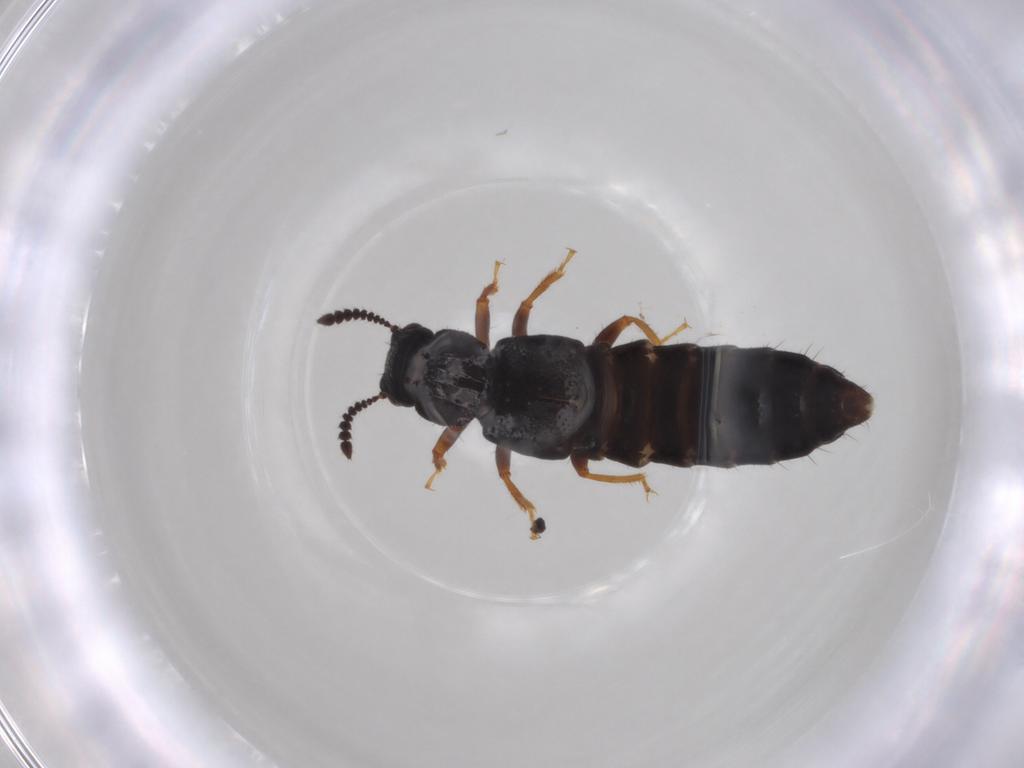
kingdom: Animalia
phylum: Arthropoda
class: Insecta
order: Coleoptera
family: Staphylinidae
